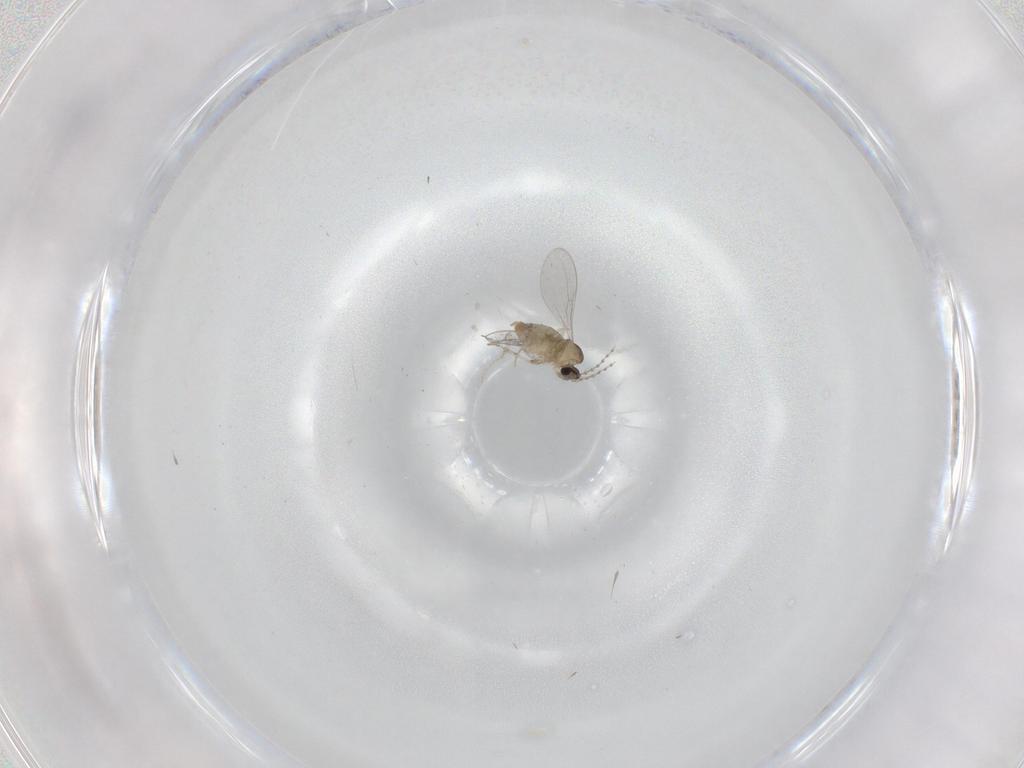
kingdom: Animalia
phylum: Arthropoda
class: Insecta
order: Diptera
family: Cecidomyiidae
